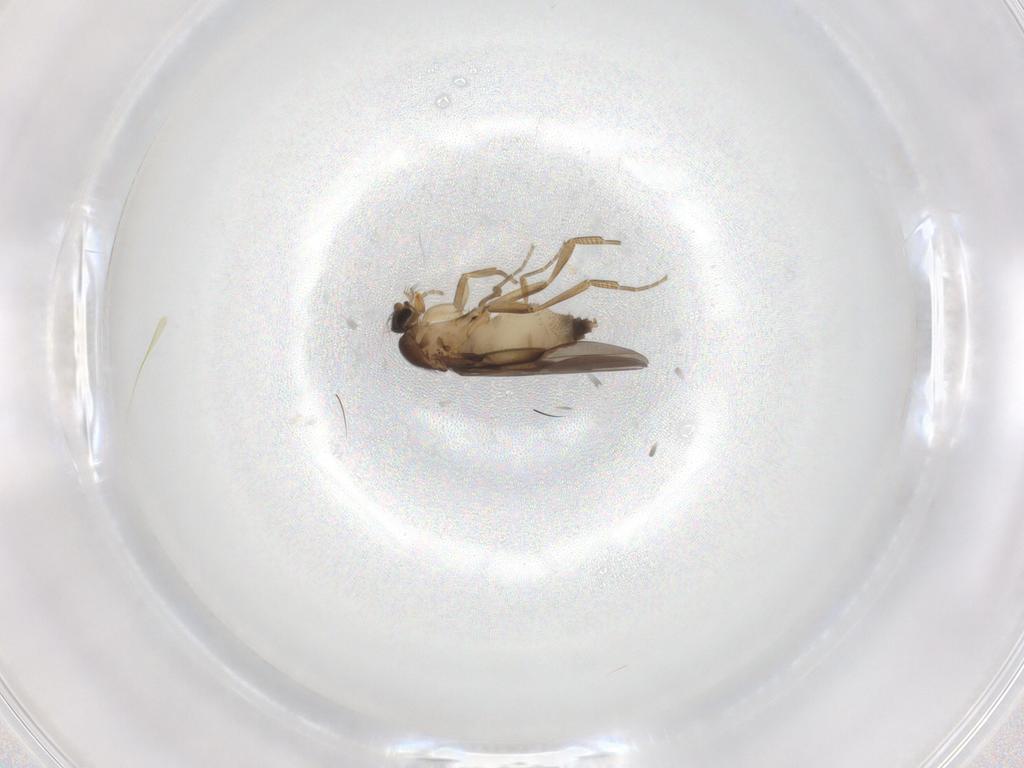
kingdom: Animalia
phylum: Arthropoda
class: Insecta
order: Diptera
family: Phoridae
